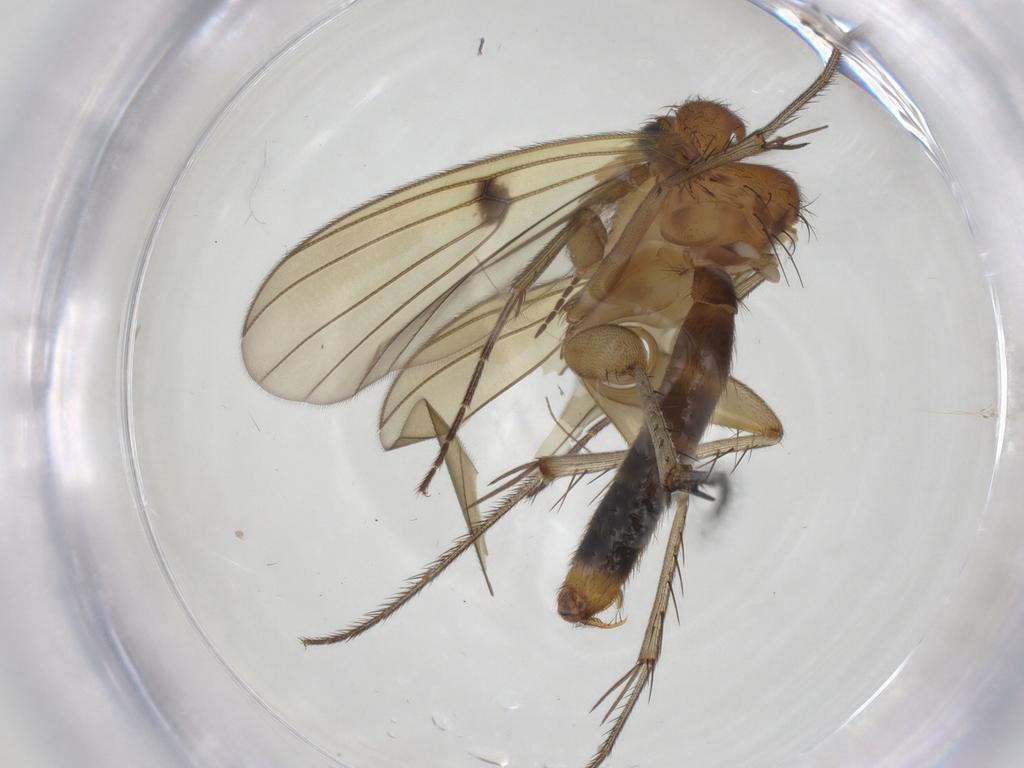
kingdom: Animalia
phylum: Arthropoda
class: Insecta
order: Diptera
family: Chironomidae
